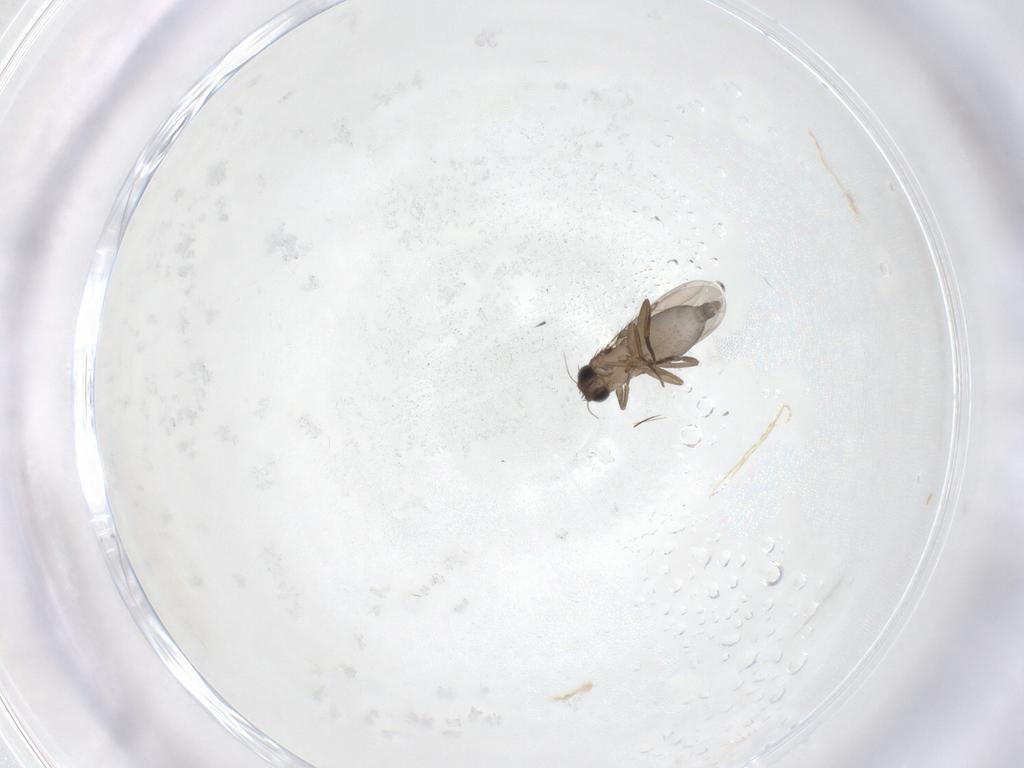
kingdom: Animalia
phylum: Arthropoda
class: Insecta
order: Diptera
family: Phoridae
